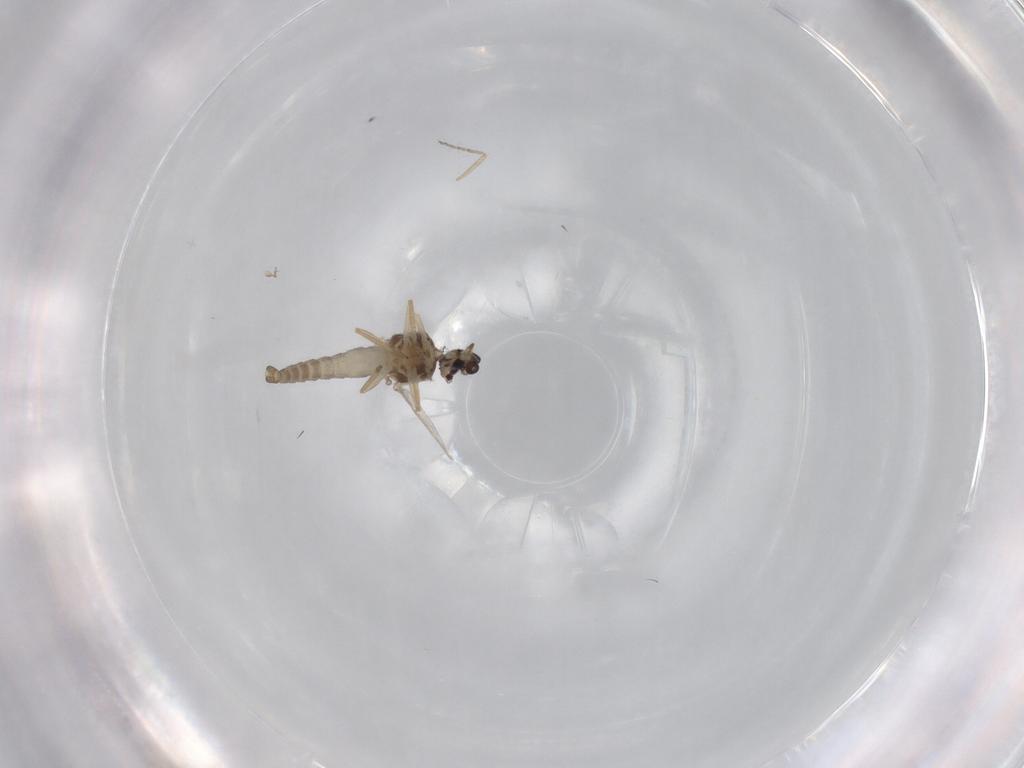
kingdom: Animalia
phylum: Arthropoda
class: Insecta
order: Diptera
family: Ceratopogonidae
